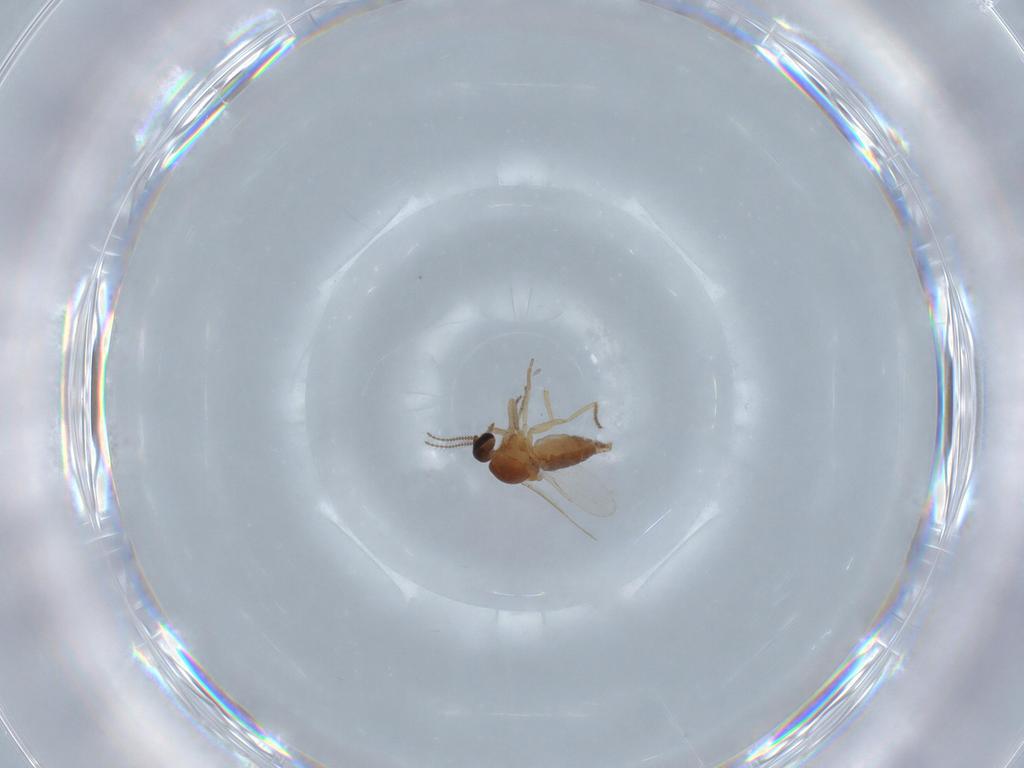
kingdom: Animalia
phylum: Arthropoda
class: Insecta
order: Diptera
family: Ceratopogonidae
